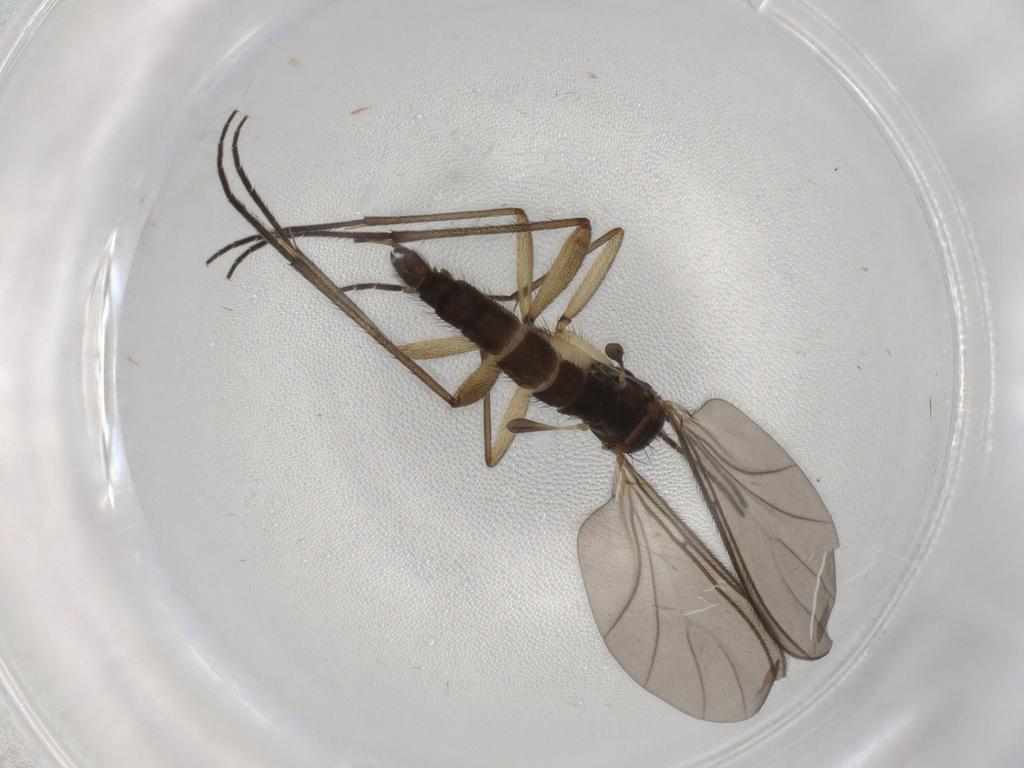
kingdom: Animalia
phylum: Arthropoda
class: Insecta
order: Diptera
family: Sciaridae
